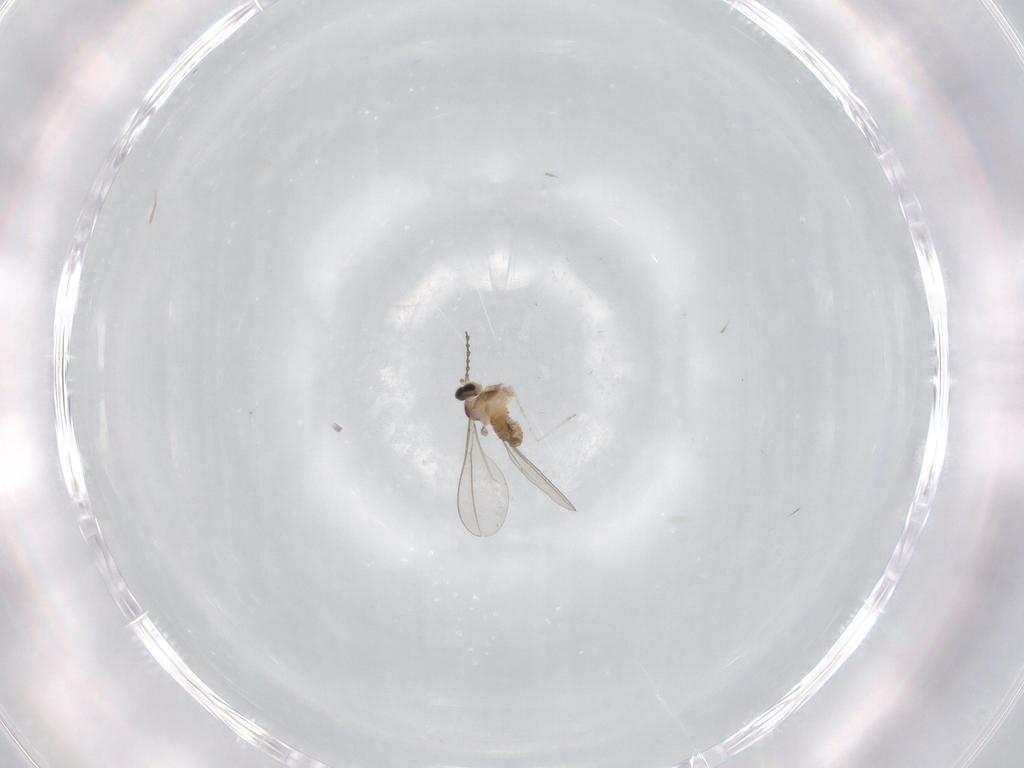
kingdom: Animalia
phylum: Arthropoda
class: Insecta
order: Diptera
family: Cecidomyiidae
